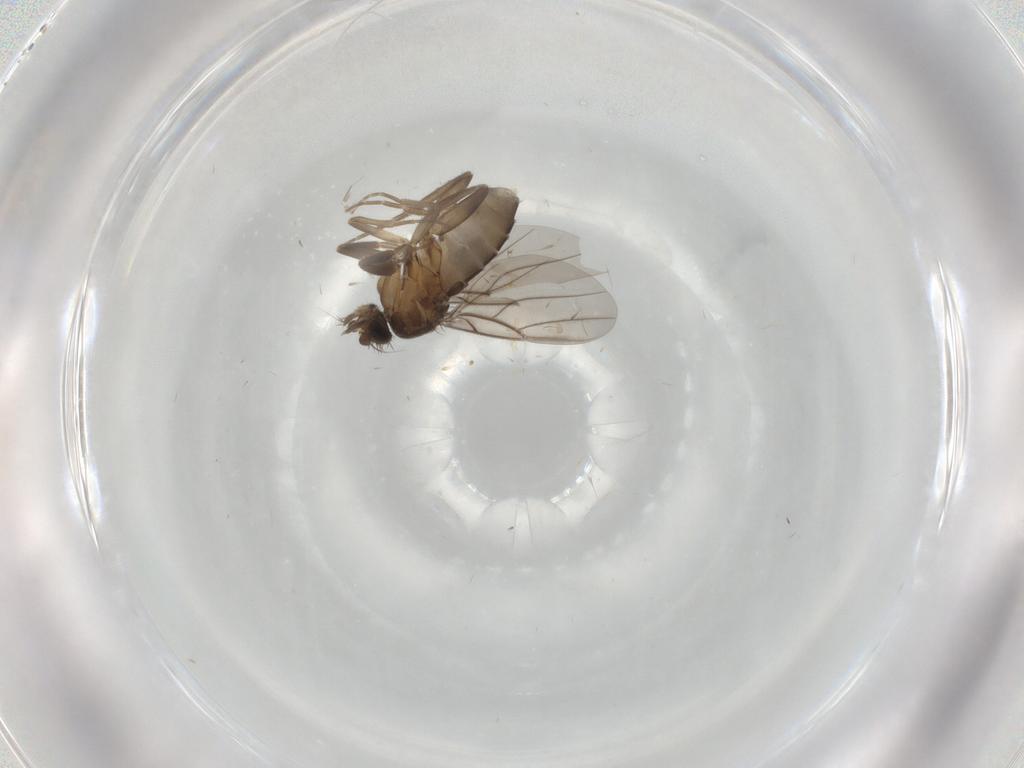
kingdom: Animalia
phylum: Arthropoda
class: Insecta
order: Diptera
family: Phoridae
